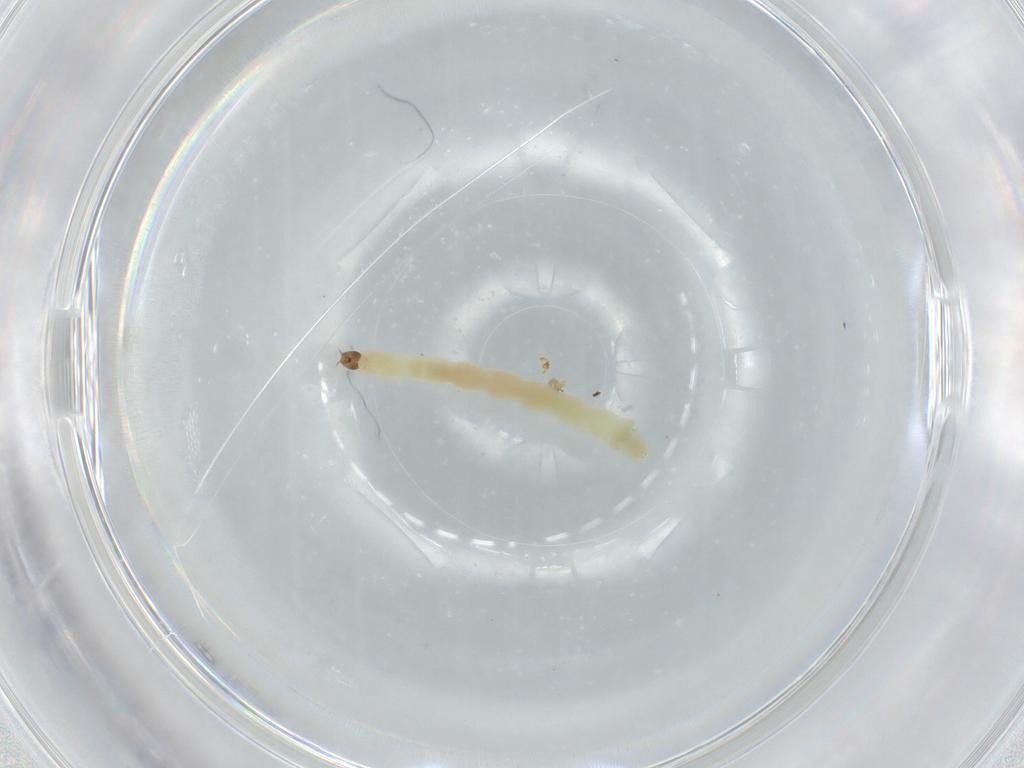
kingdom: Animalia
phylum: Arthropoda
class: Insecta
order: Diptera
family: Chironomidae
